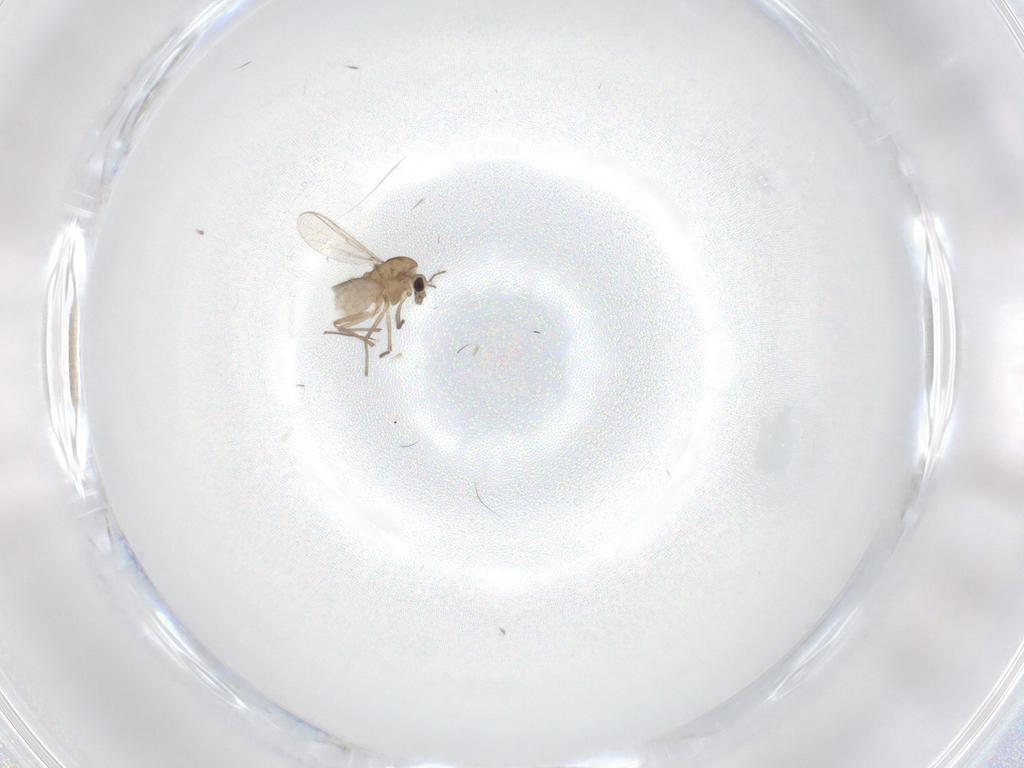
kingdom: Animalia
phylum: Arthropoda
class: Insecta
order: Diptera
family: Chironomidae
